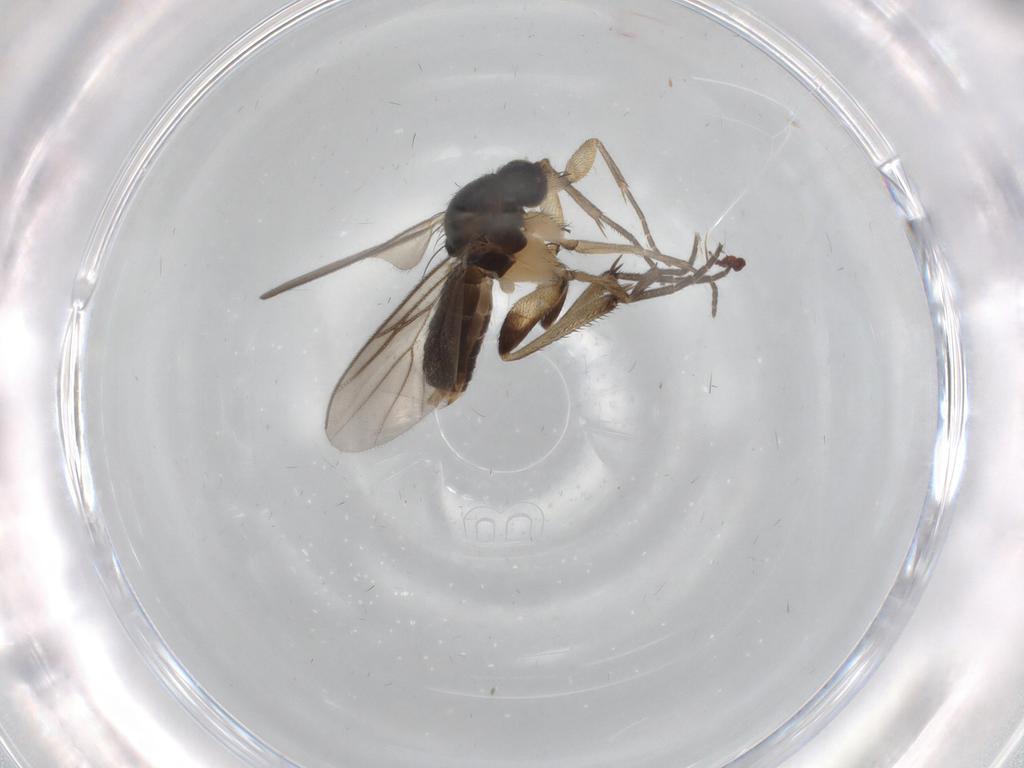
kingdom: Animalia
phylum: Arthropoda
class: Insecta
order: Diptera
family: Mycetophilidae
